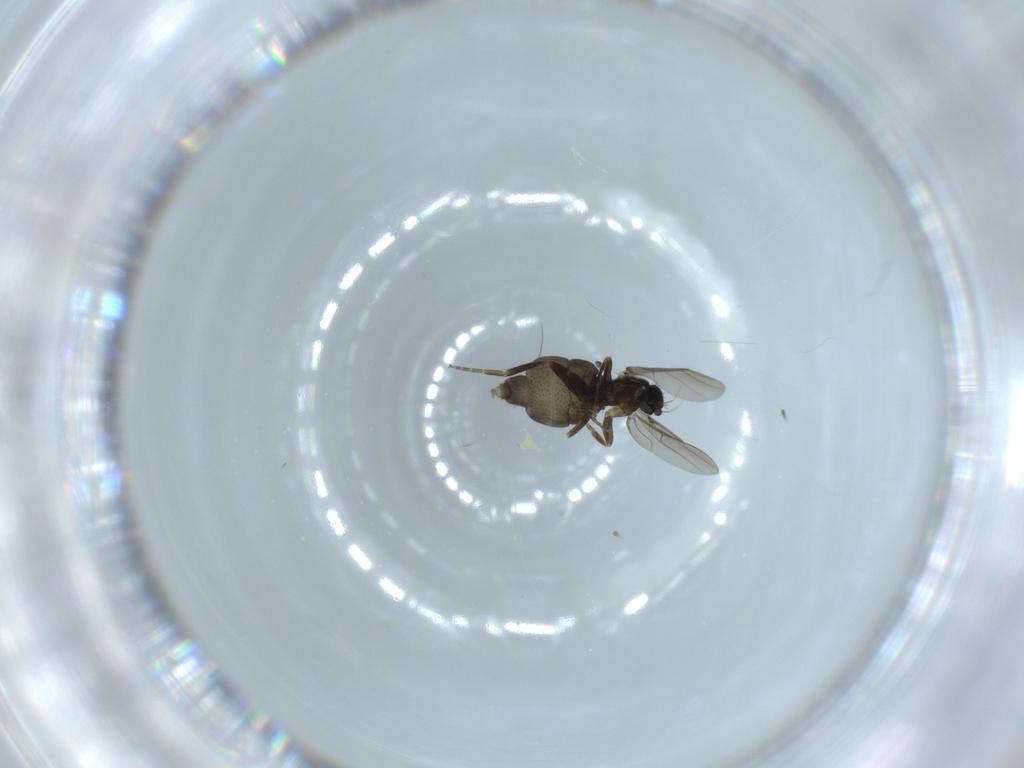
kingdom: Animalia
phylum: Arthropoda
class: Insecta
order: Diptera
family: Phoridae
